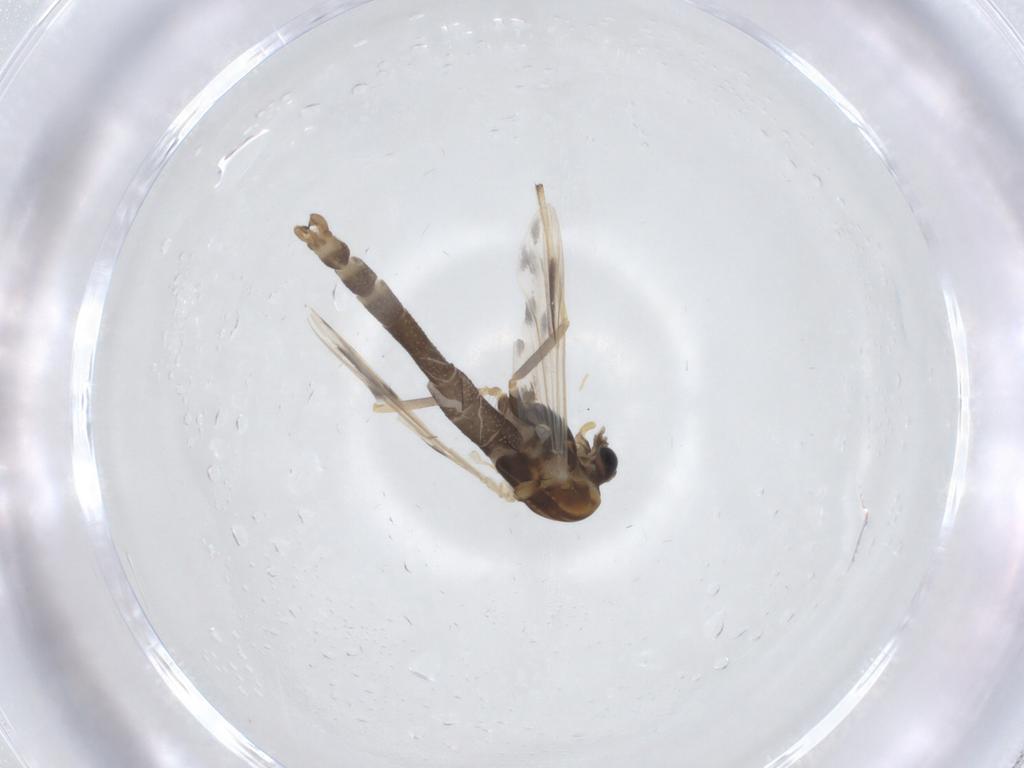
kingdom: Animalia
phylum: Arthropoda
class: Insecta
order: Diptera
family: Chironomidae
